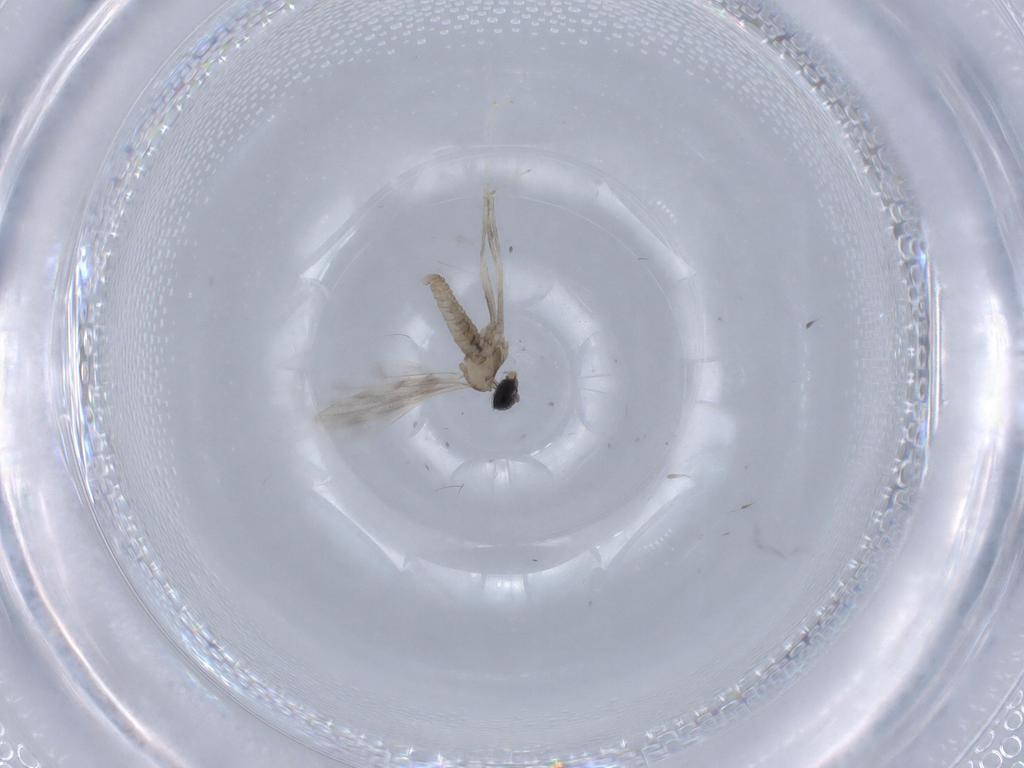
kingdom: Animalia
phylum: Arthropoda
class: Insecta
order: Diptera
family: Cecidomyiidae
